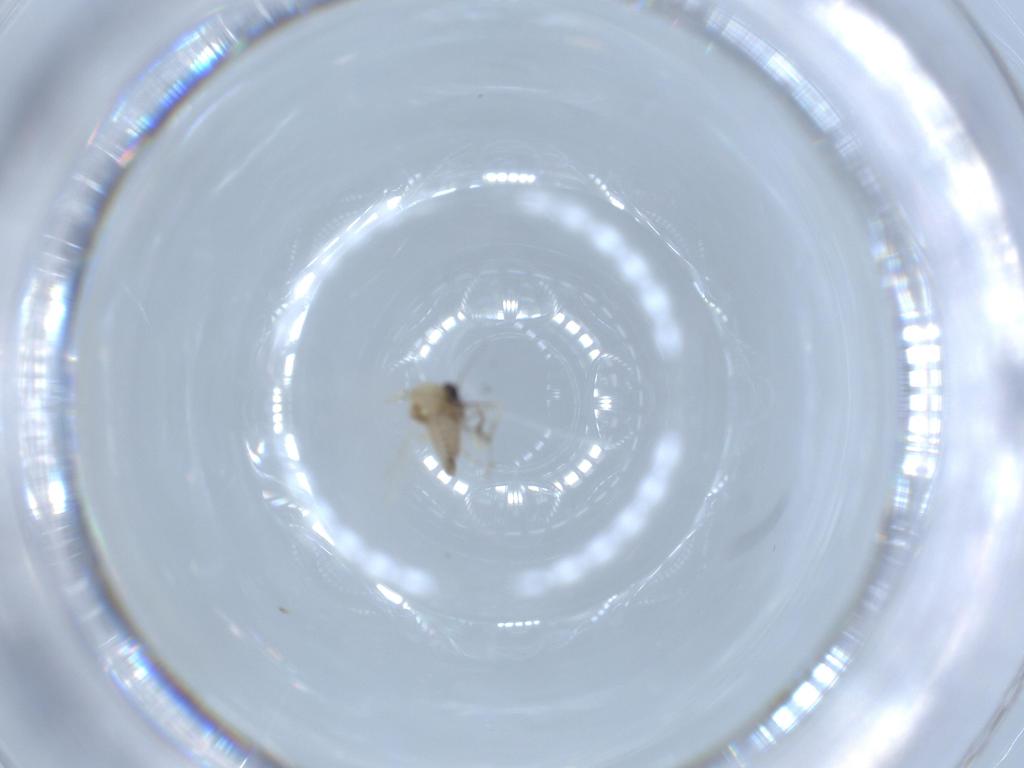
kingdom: Animalia
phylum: Arthropoda
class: Insecta
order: Diptera
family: Ceratopogonidae
